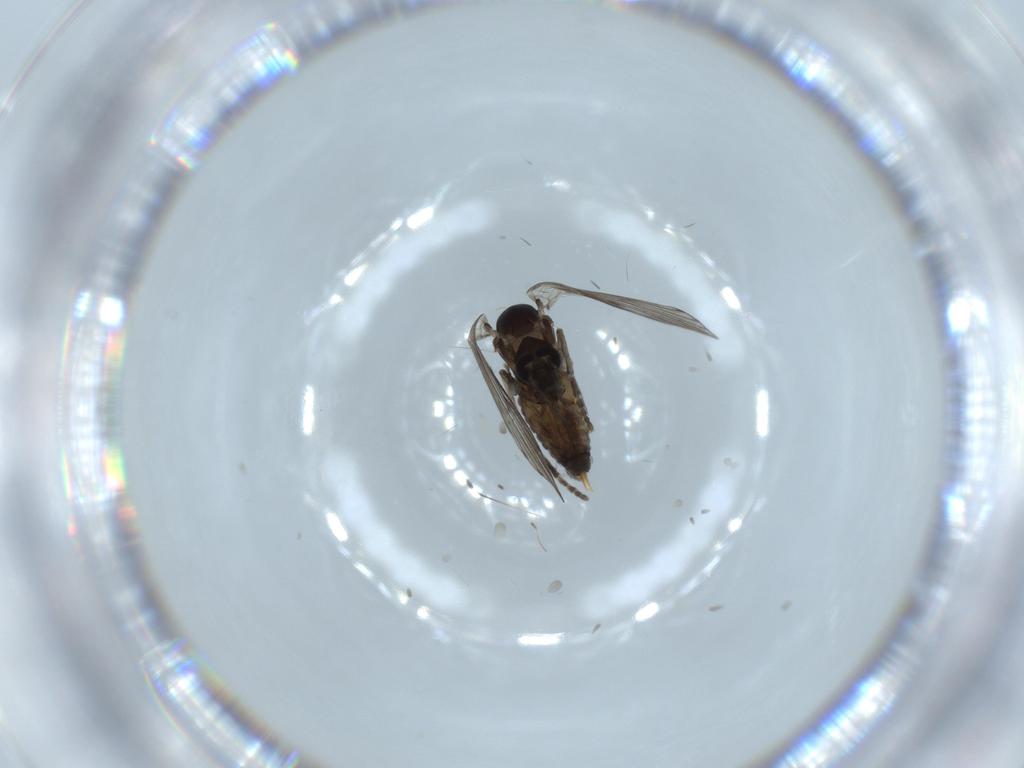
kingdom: Animalia
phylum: Arthropoda
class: Insecta
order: Diptera
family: Psychodidae
